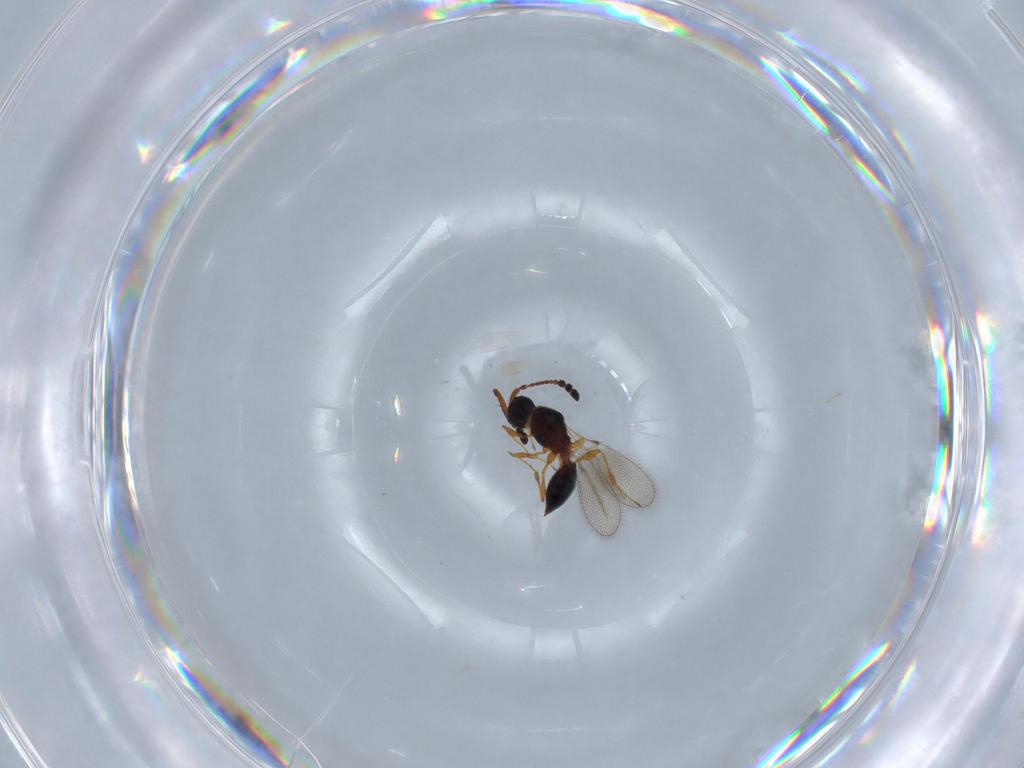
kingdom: Animalia
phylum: Arthropoda
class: Insecta
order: Hymenoptera
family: Diapriidae
